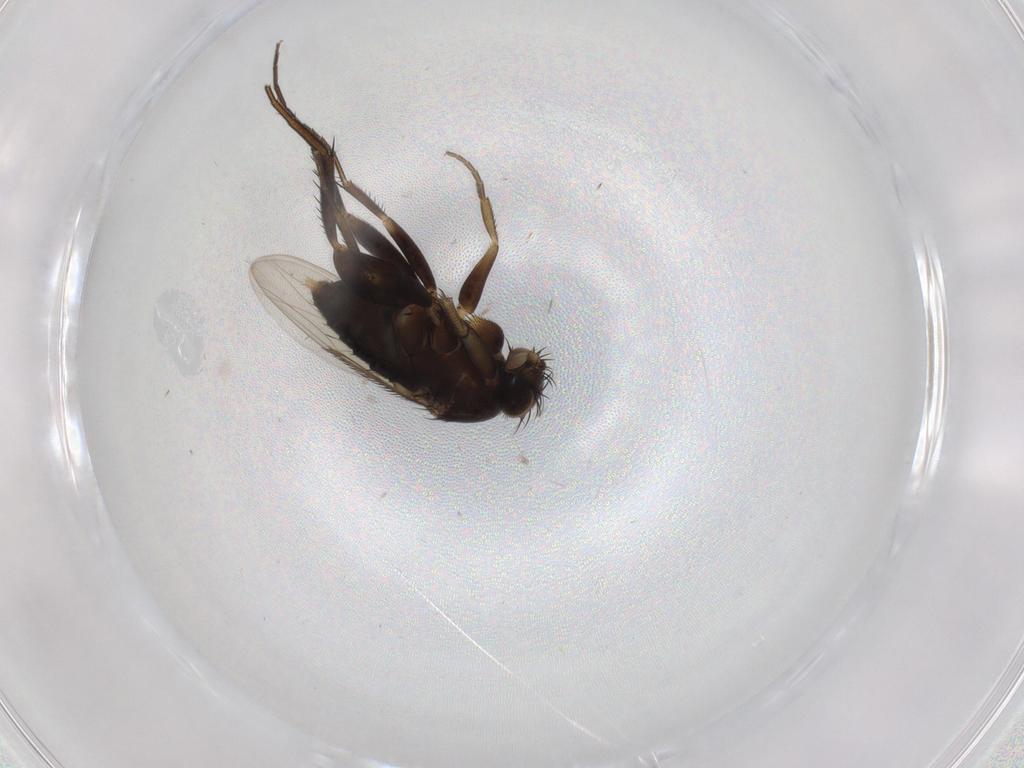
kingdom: Animalia
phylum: Arthropoda
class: Insecta
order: Diptera
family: Phoridae
